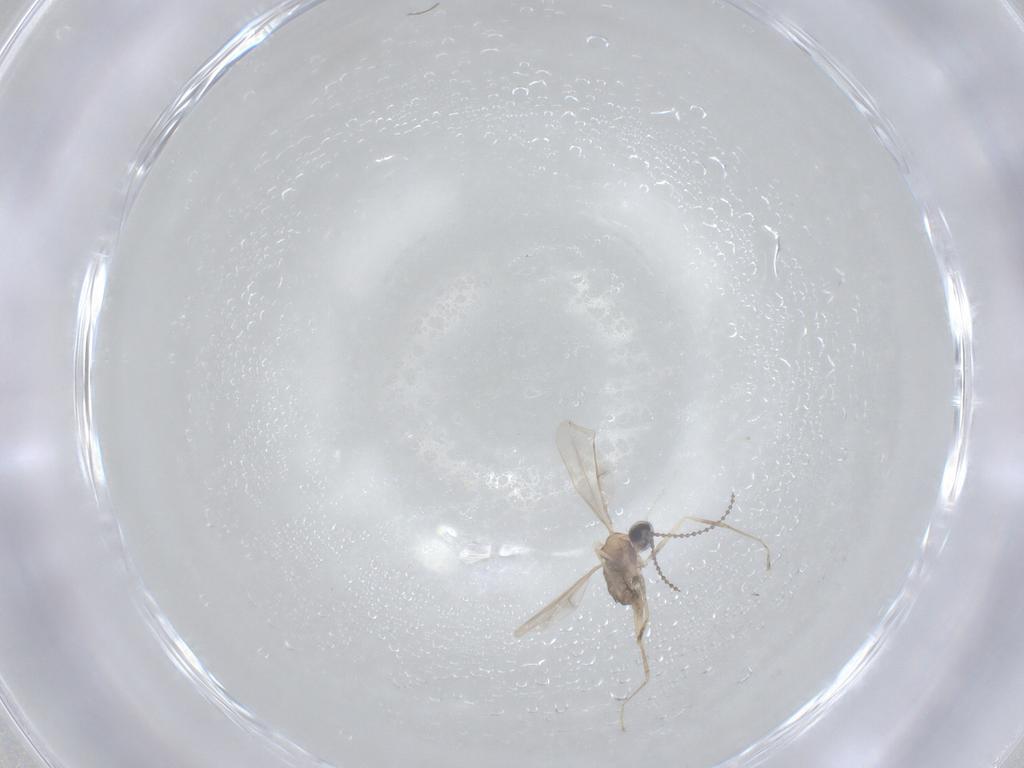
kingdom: Animalia
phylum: Arthropoda
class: Insecta
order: Diptera
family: Cecidomyiidae
